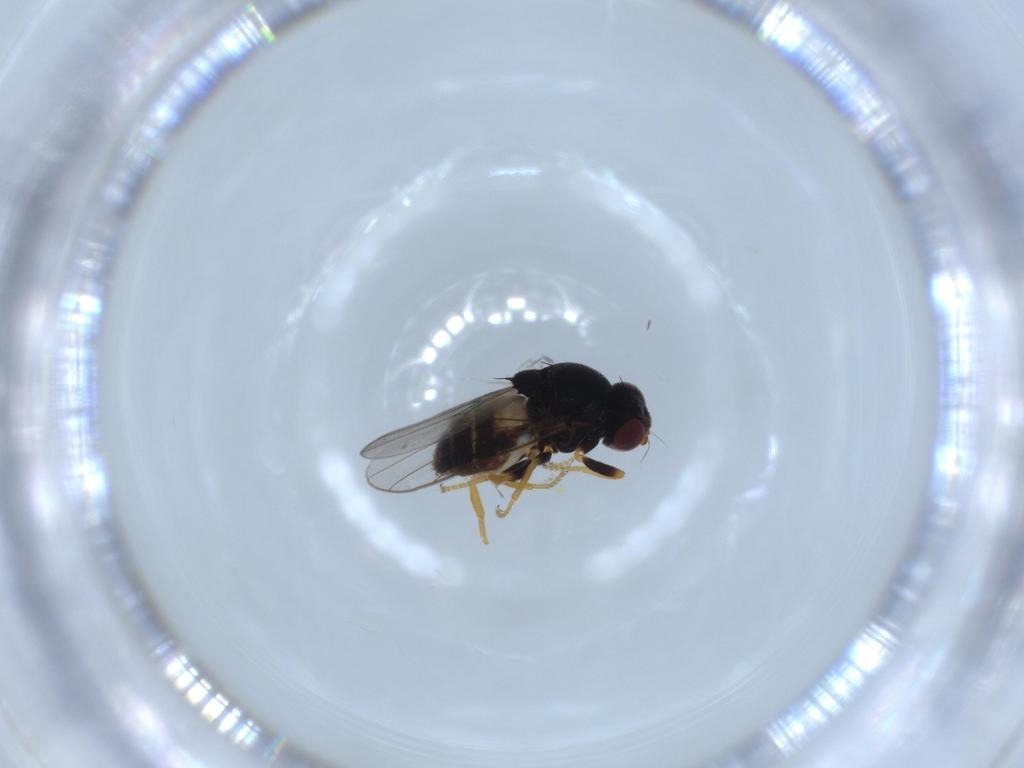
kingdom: Animalia
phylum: Arthropoda
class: Insecta
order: Diptera
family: Chloropidae
